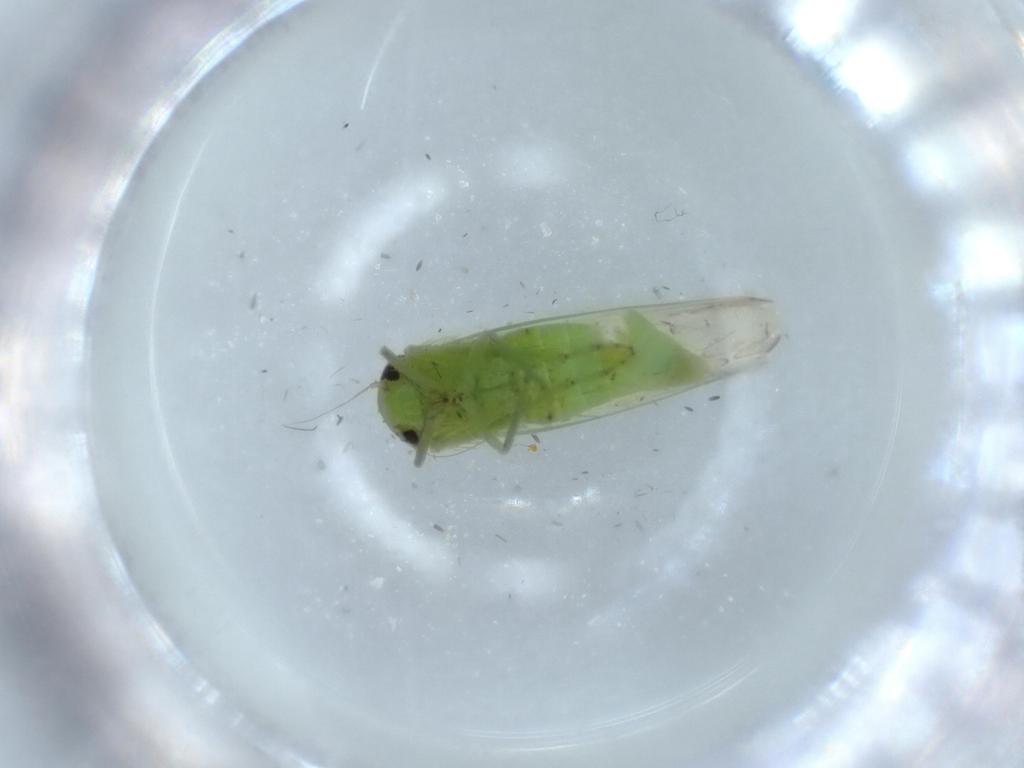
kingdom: Animalia
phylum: Arthropoda
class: Insecta
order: Hemiptera
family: Cicadellidae
